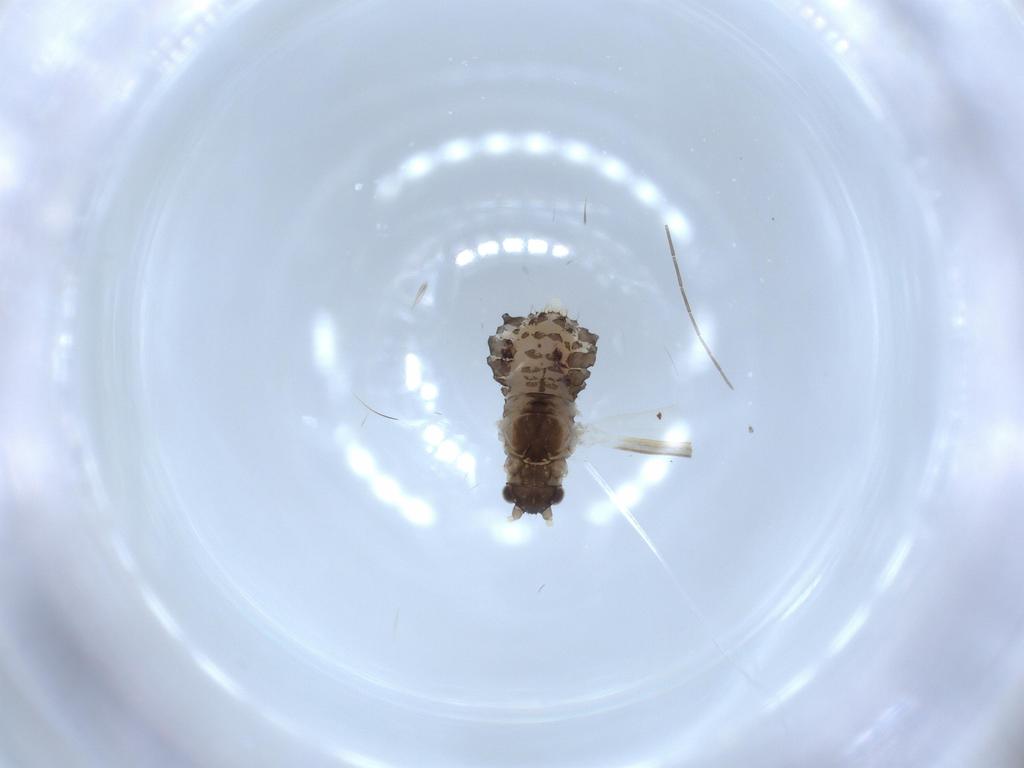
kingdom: Animalia
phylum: Arthropoda
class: Insecta
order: Hemiptera
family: Aphididae
